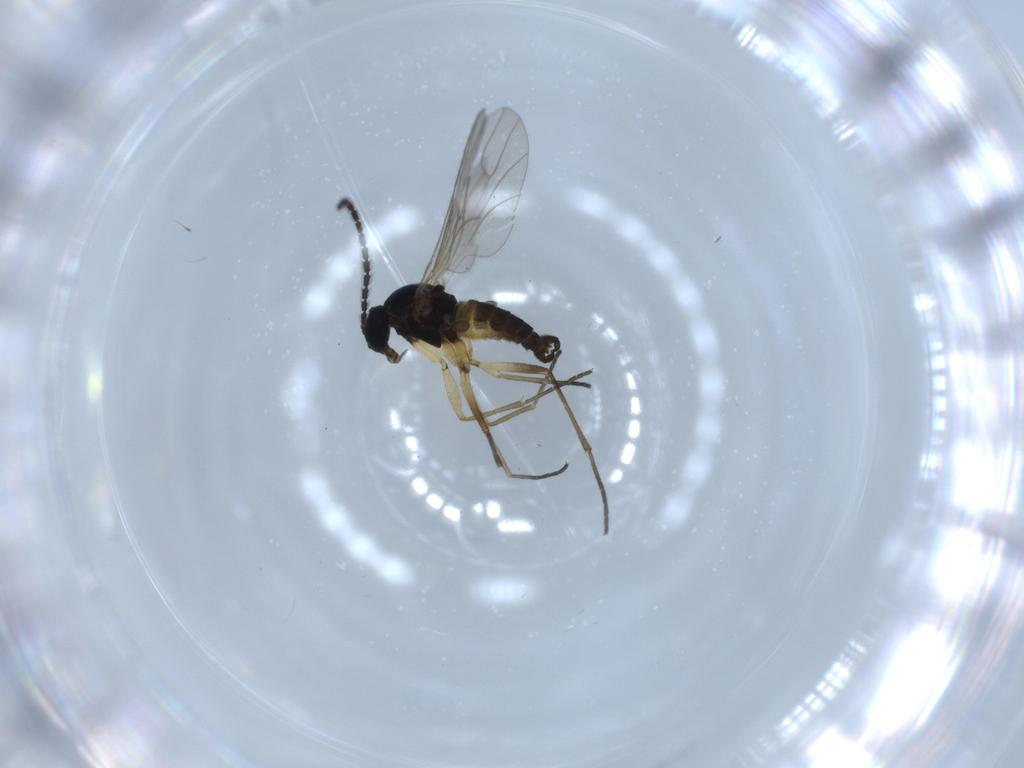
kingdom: Animalia
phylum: Arthropoda
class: Insecta
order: Diptera
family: Sciaridae
